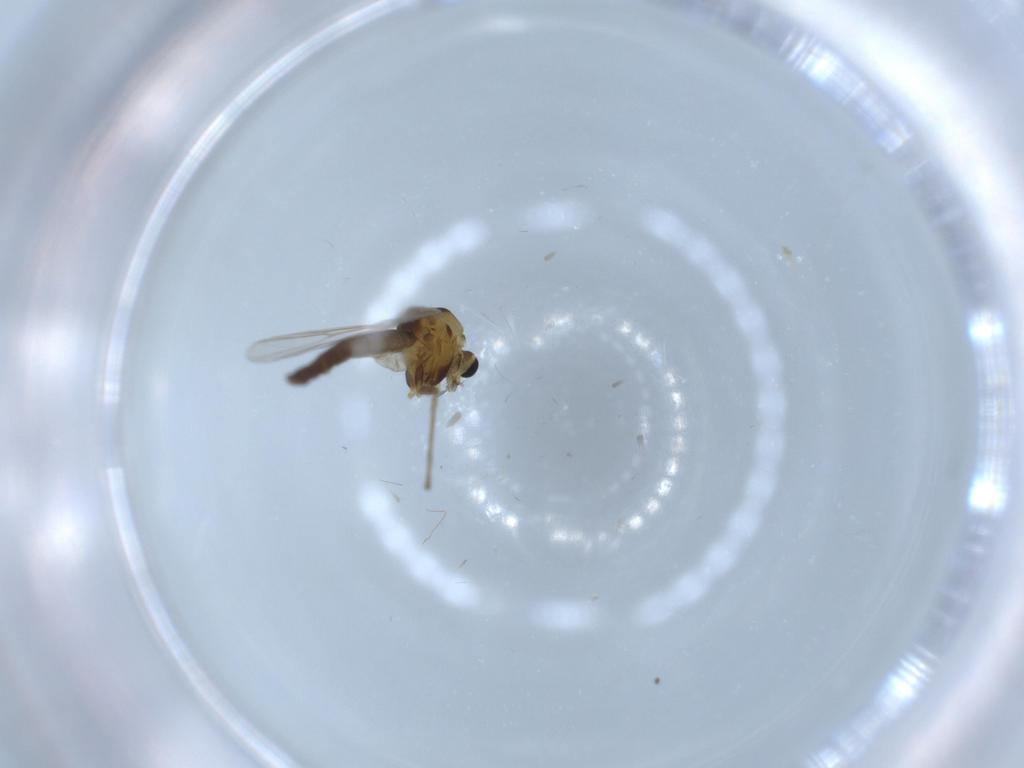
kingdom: Animalia
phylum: Arthropoda
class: Insecta
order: Diptera
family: Chironomidae
